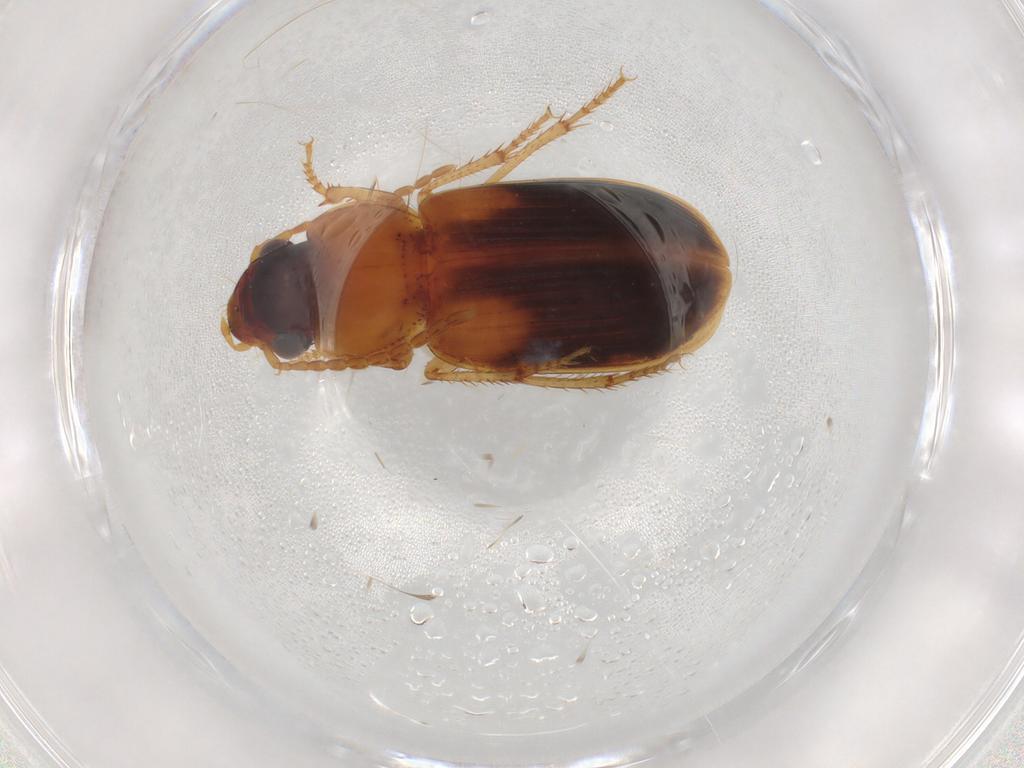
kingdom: Animalia
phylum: Arthropoda
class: Insecta
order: Coleoptera
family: Carabidae
